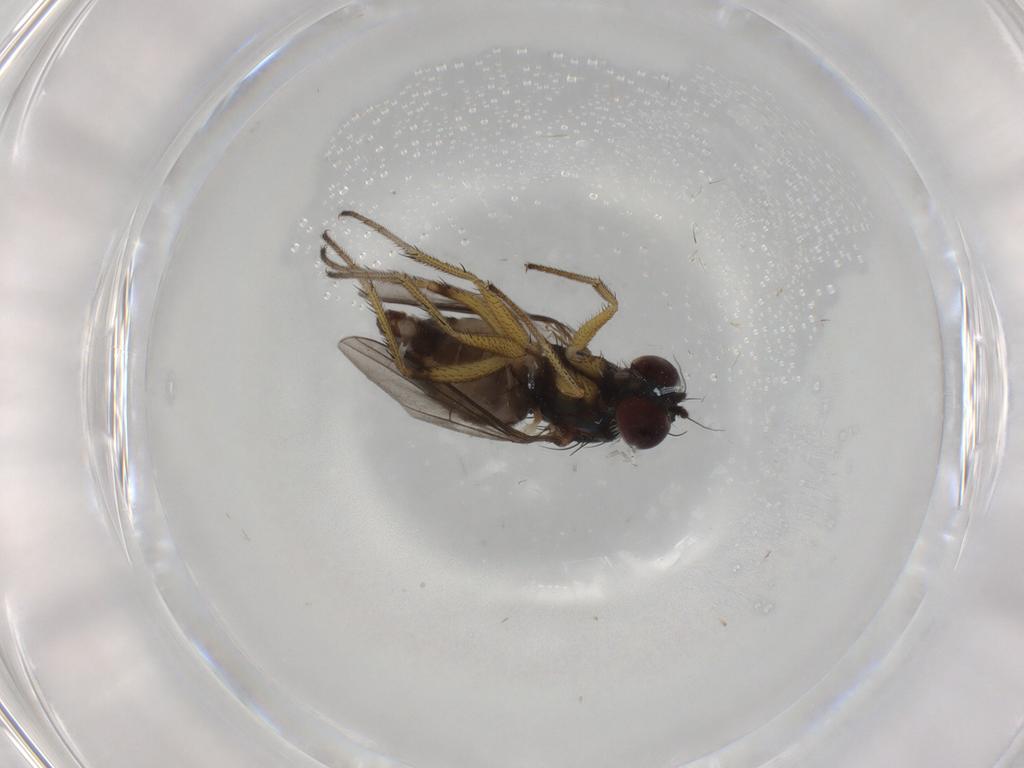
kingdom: Animalia
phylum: Arthropoda
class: Insecta
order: Diptera
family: Dolichopodidae
